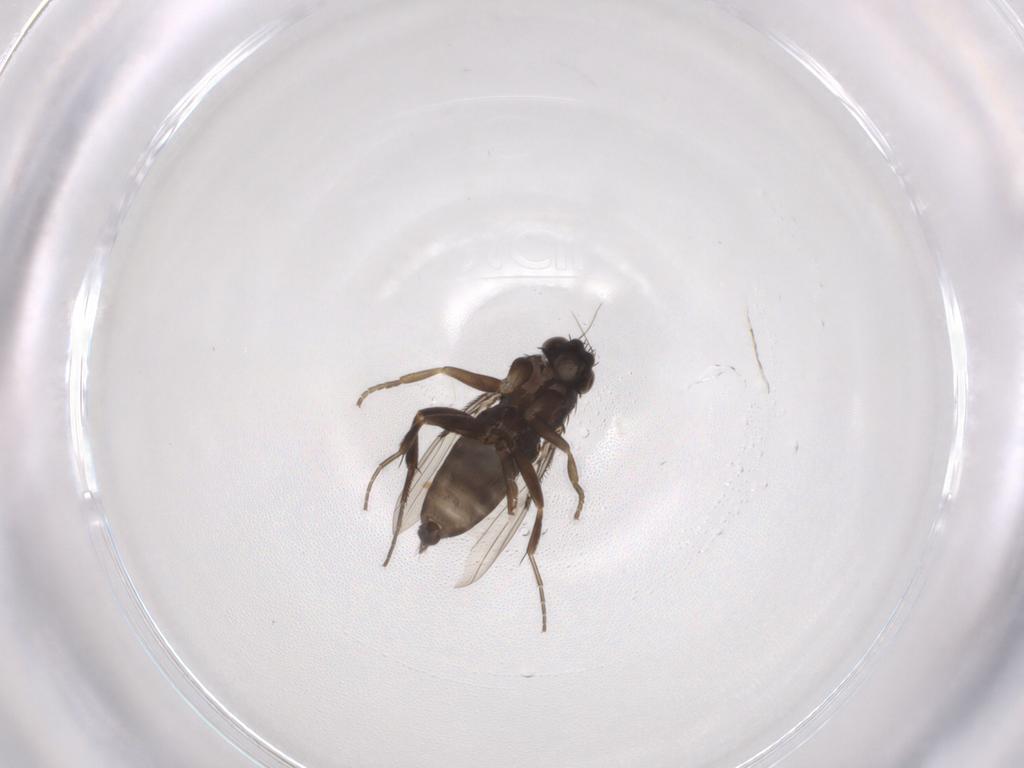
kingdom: Animalia
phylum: Arthropoda
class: Insecta
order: Diptera
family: Phoridae
